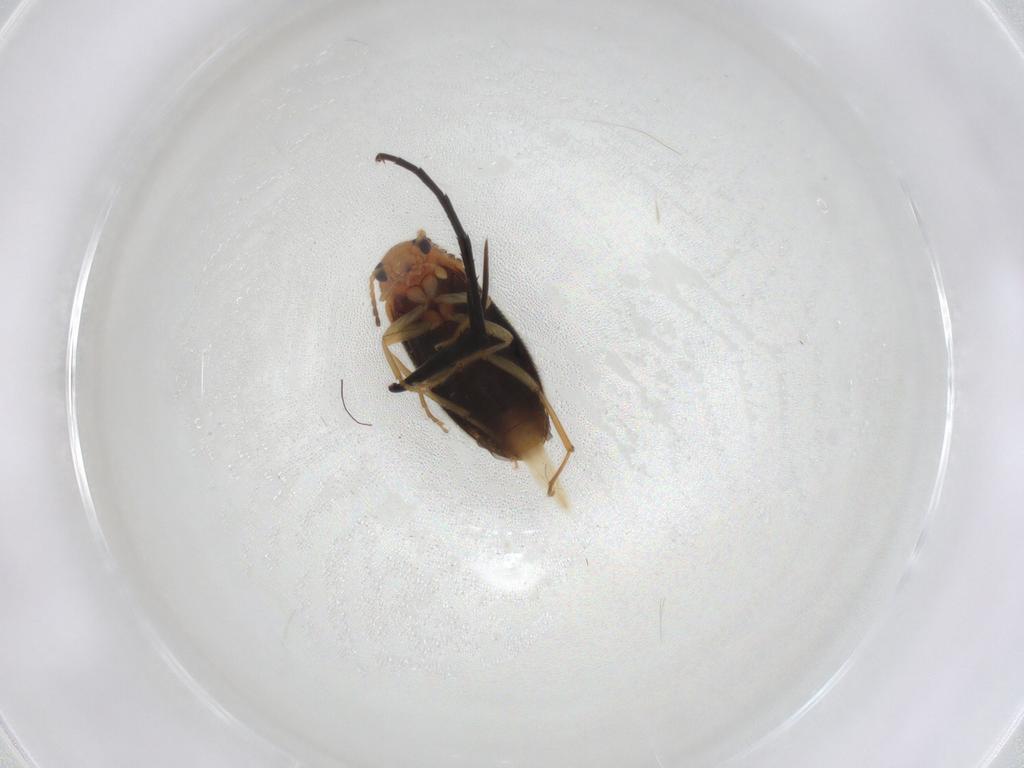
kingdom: Animalia
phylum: Arthropoda
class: Insecta
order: Coleoptera
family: Melandryidae
